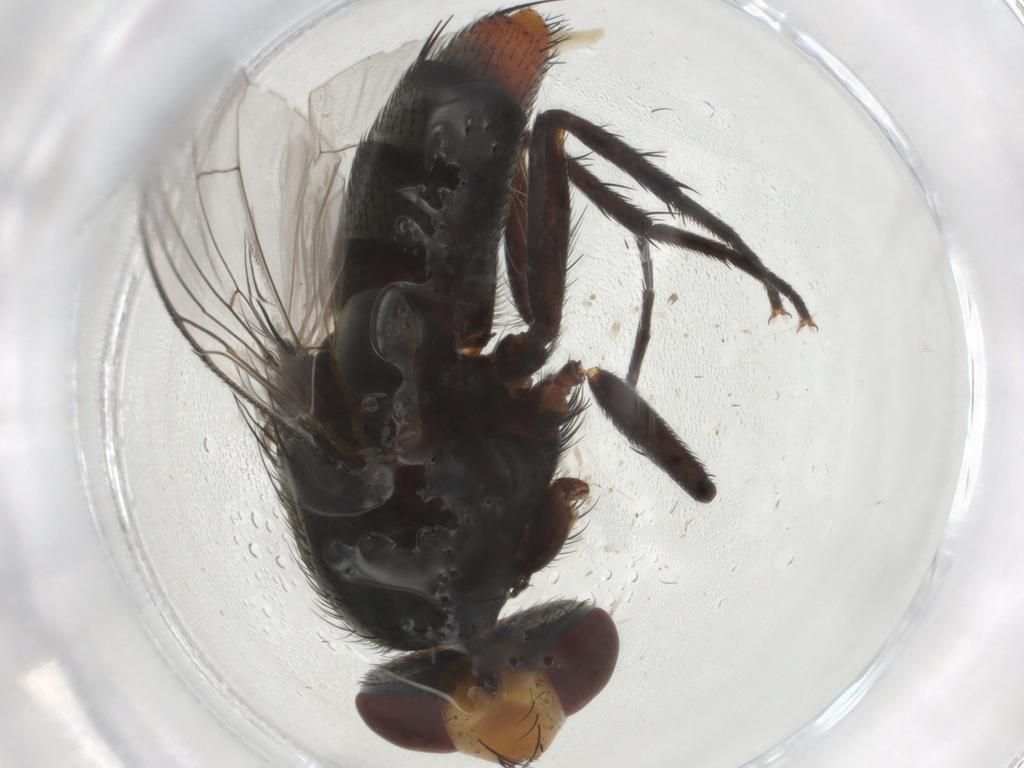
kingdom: Animalia
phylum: Arthropoda
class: Insecta
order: Diptera
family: Sarcophagidae
